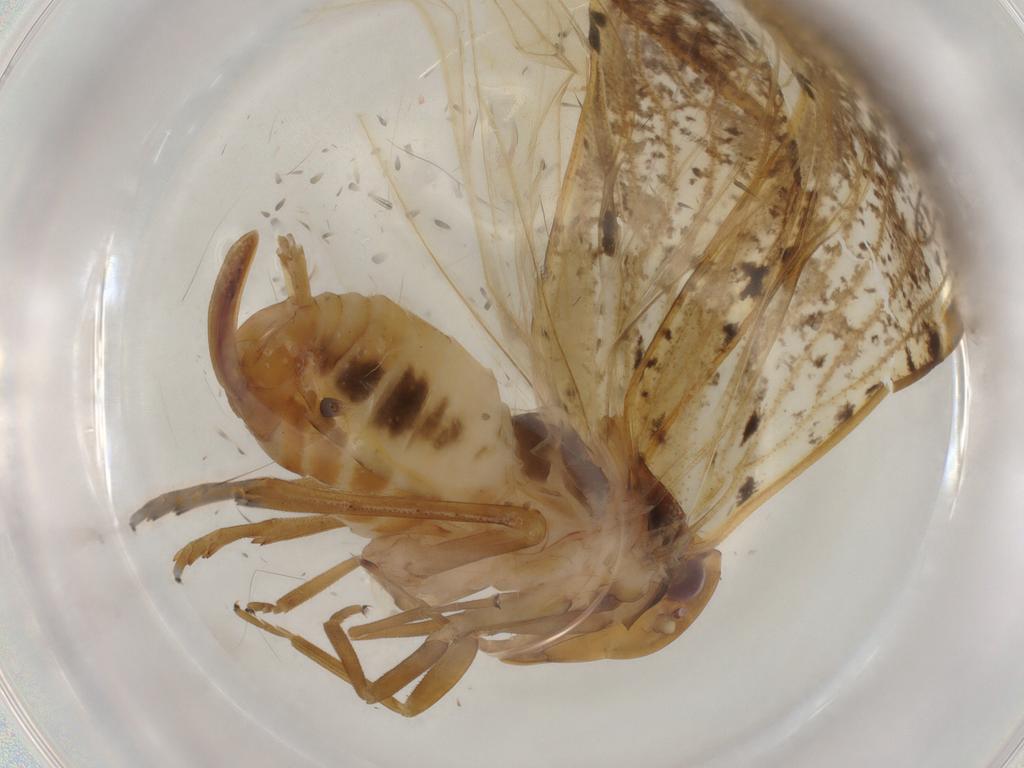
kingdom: Animalia
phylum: Arthropoda
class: Insecta
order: Hemiptera
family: Cixiidae
